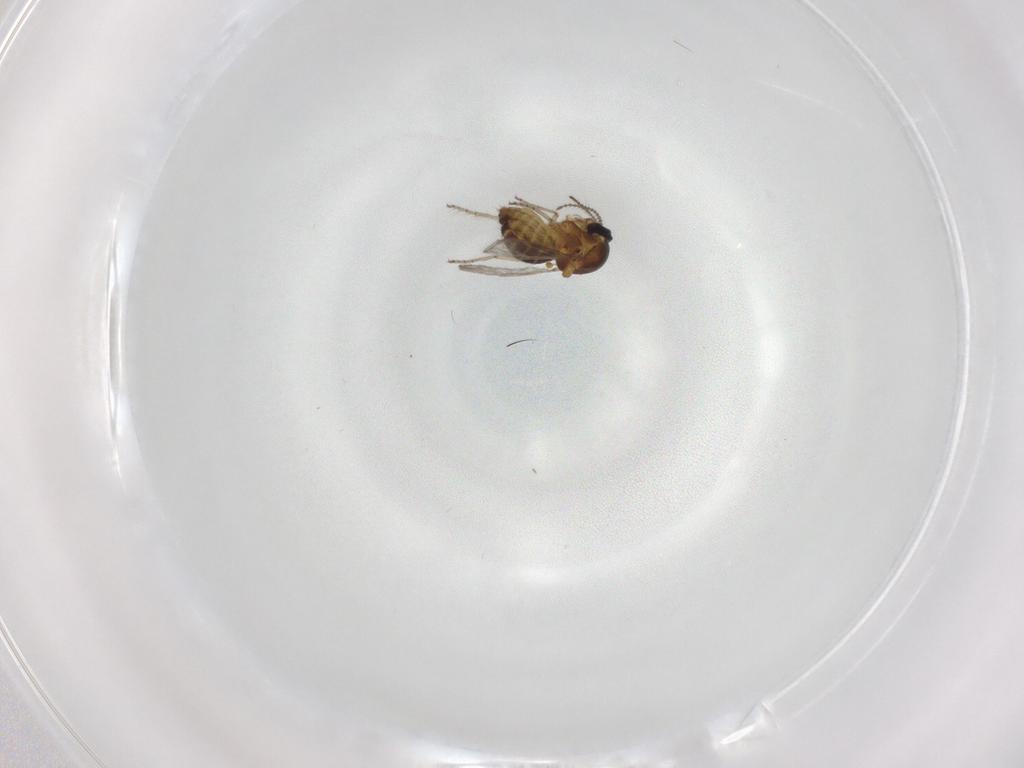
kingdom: Animalia
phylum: Arthropoda
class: Insecta
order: Diptera
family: Ceratopogonidae
